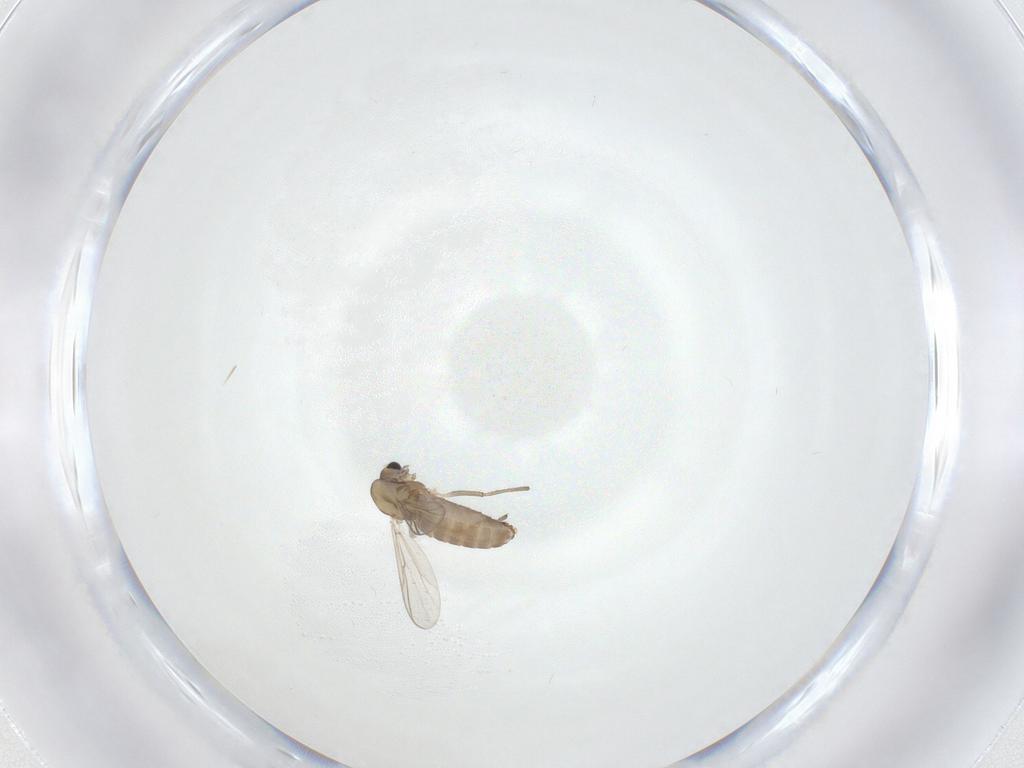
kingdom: Animalia
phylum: Arthropoda
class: Insecta
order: Diptera
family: Chironomidae
